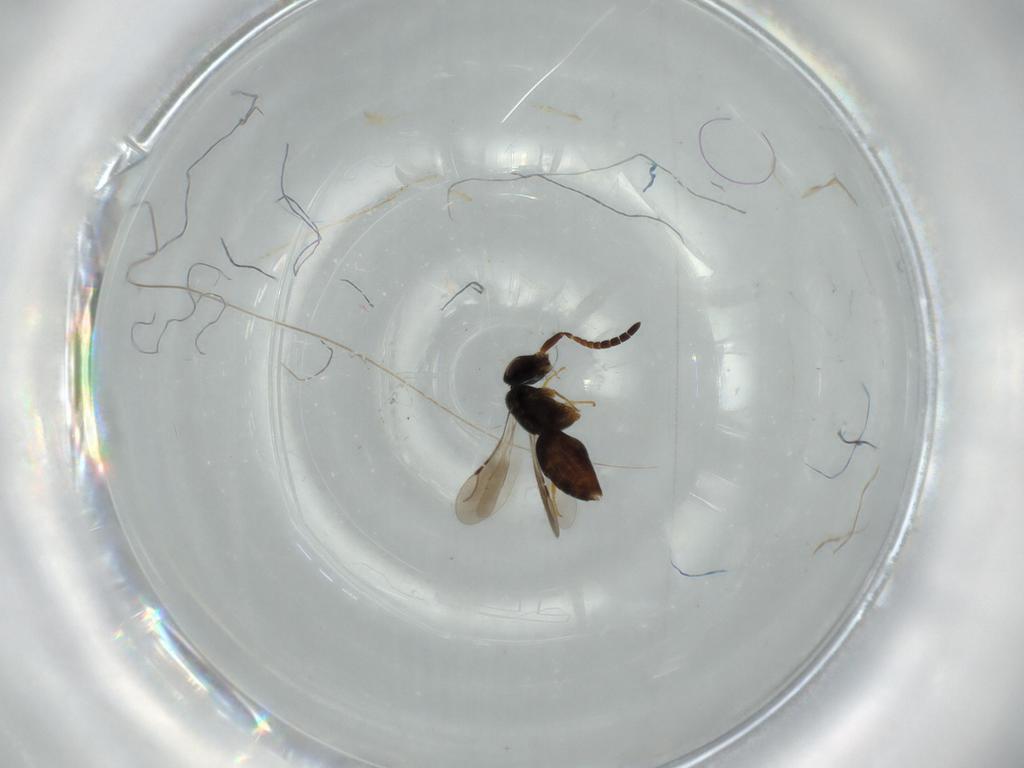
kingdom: Animalia
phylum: Arthropoda
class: Insecta
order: Hymenoptera
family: Ceraphronidae
